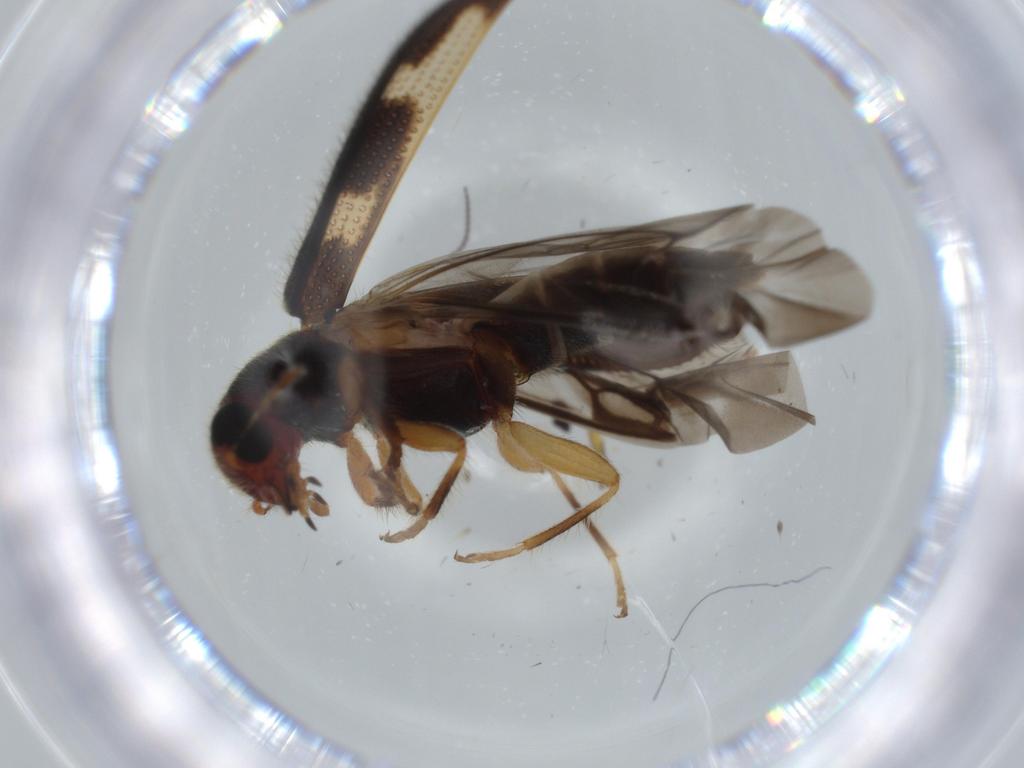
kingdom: Animalia
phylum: Arthropoda
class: Insecta
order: Coleoptera
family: Cleridae
